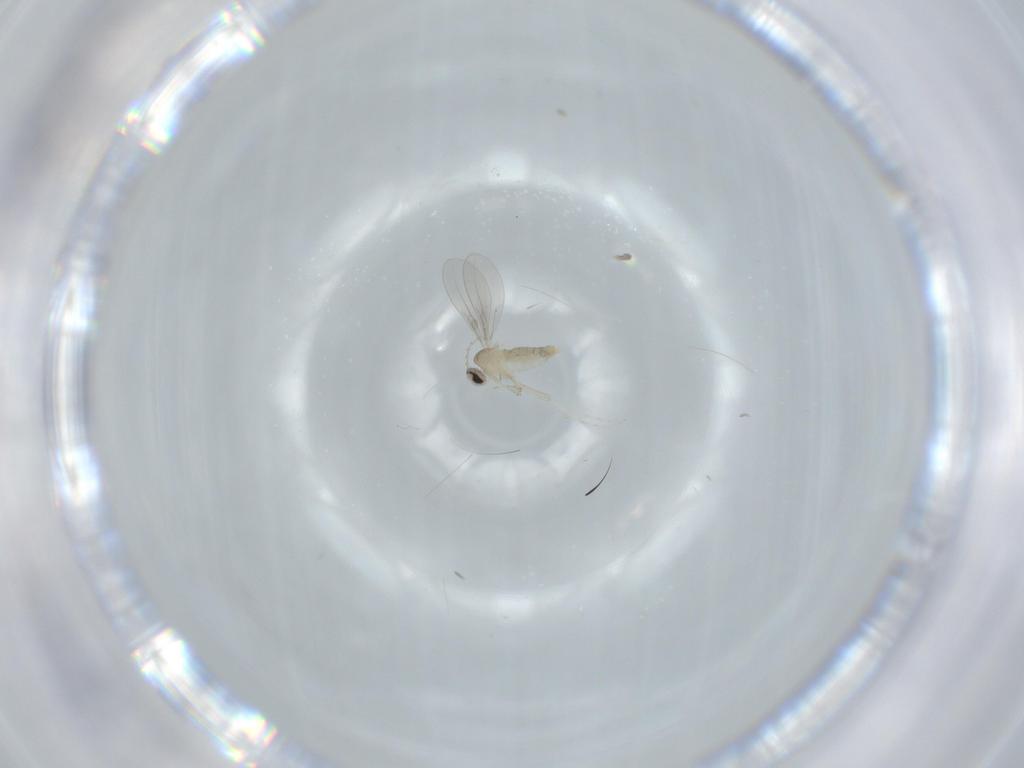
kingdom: Animalia
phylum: Arthropoda
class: Insecta
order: Diptera
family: Cecidomyiidae
